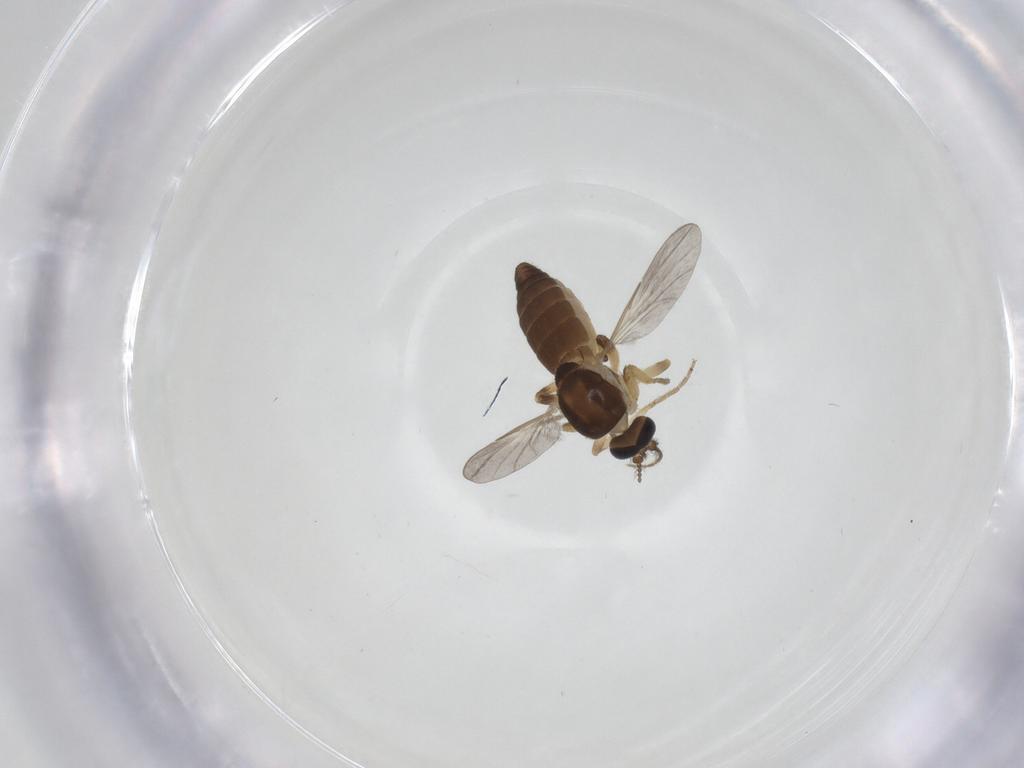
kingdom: Animalia
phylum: Arthropoda
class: Insecta
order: Diptera
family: Ceratopogonidae
